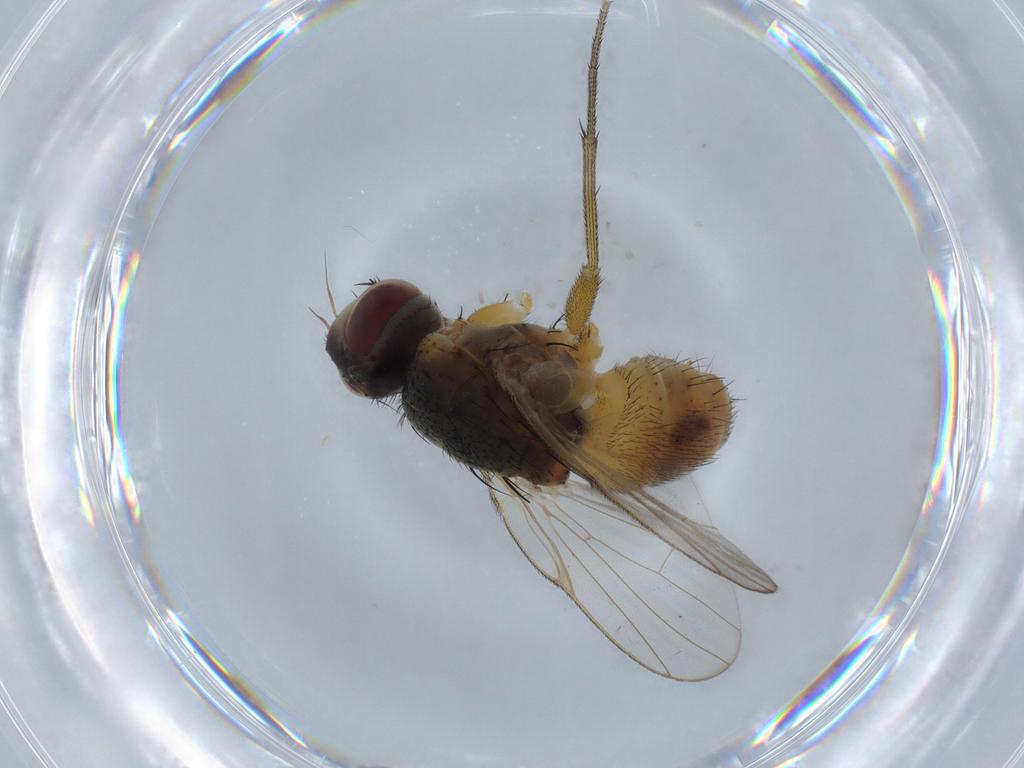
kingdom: Animalia
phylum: Arthropoda
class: Insecta
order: Diptera
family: Muscidae
